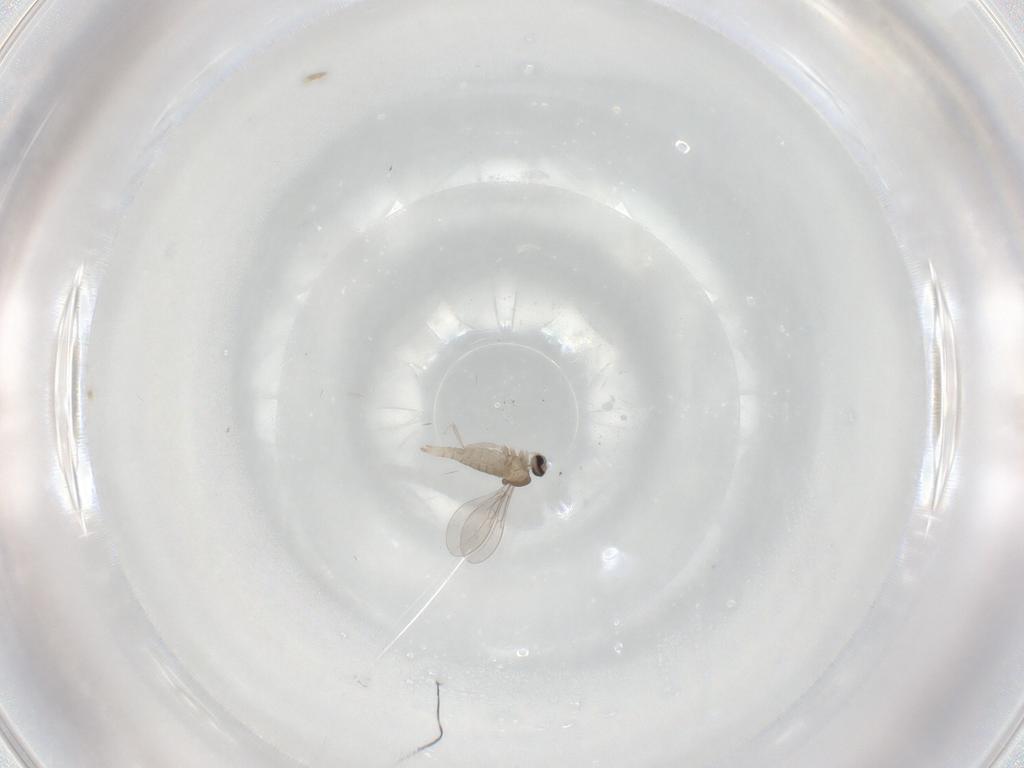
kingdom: Animalia
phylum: Arthropoda
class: Insecta
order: Diptera
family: Cecidomyiidae
